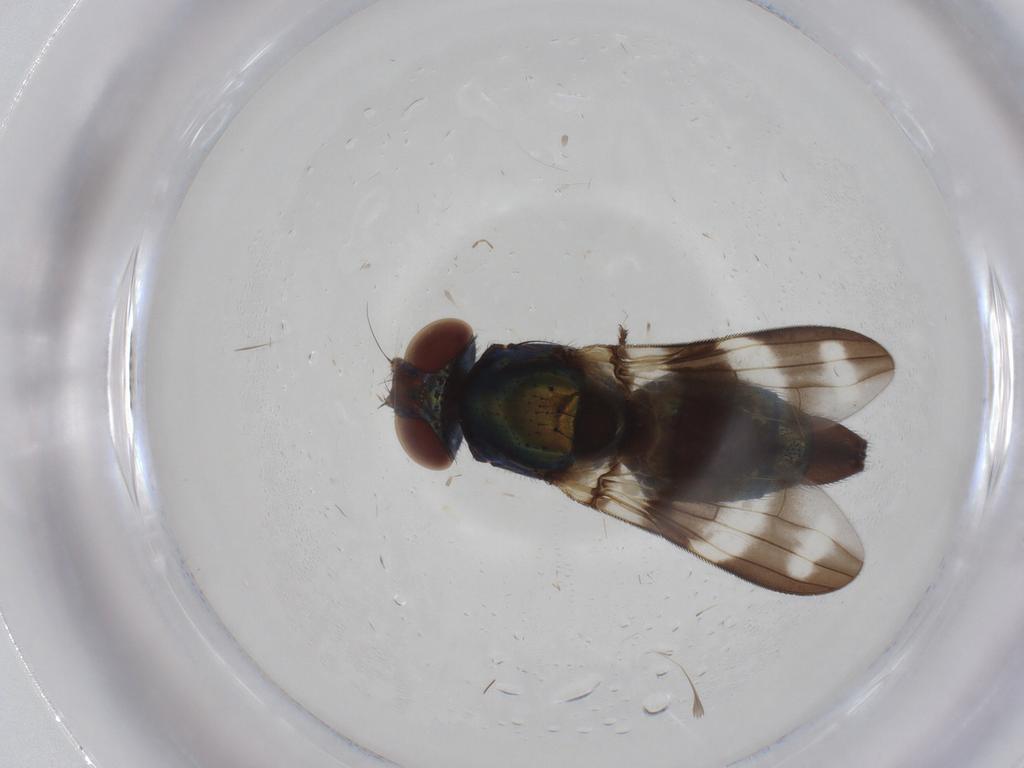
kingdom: Animalia
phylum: Arthropoda
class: Insecta
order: Diptera
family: Ulidiidae
